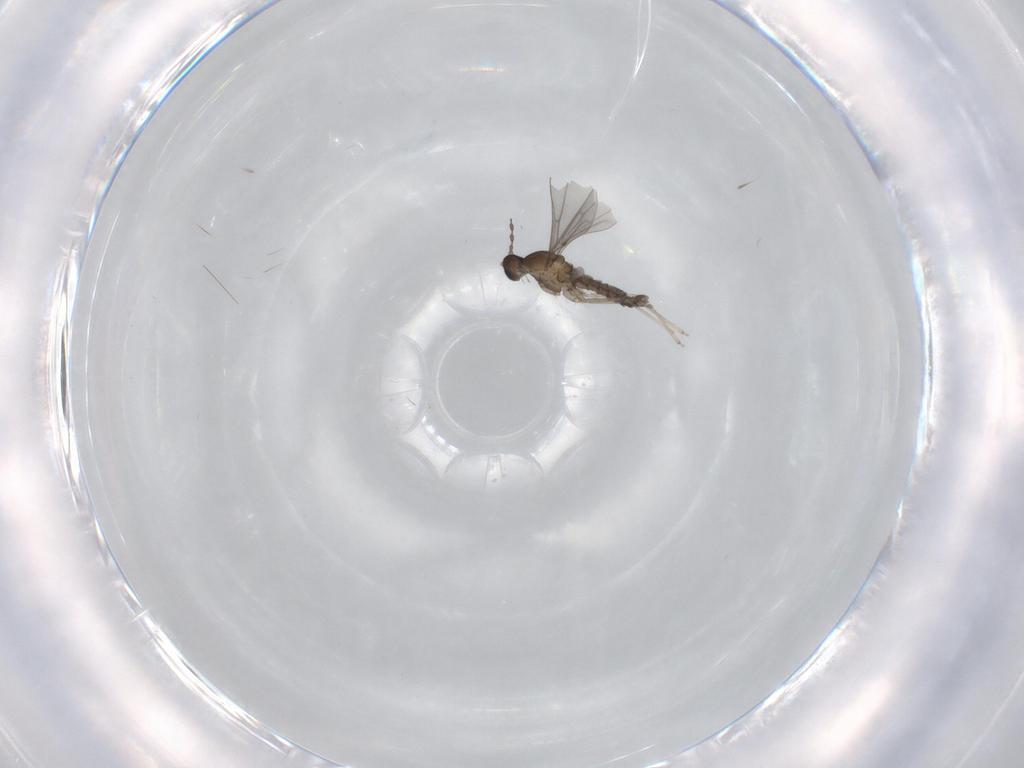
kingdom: Animalia
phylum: Arthropoda
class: Insecta
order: Diptera
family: Cecidomyiidae
